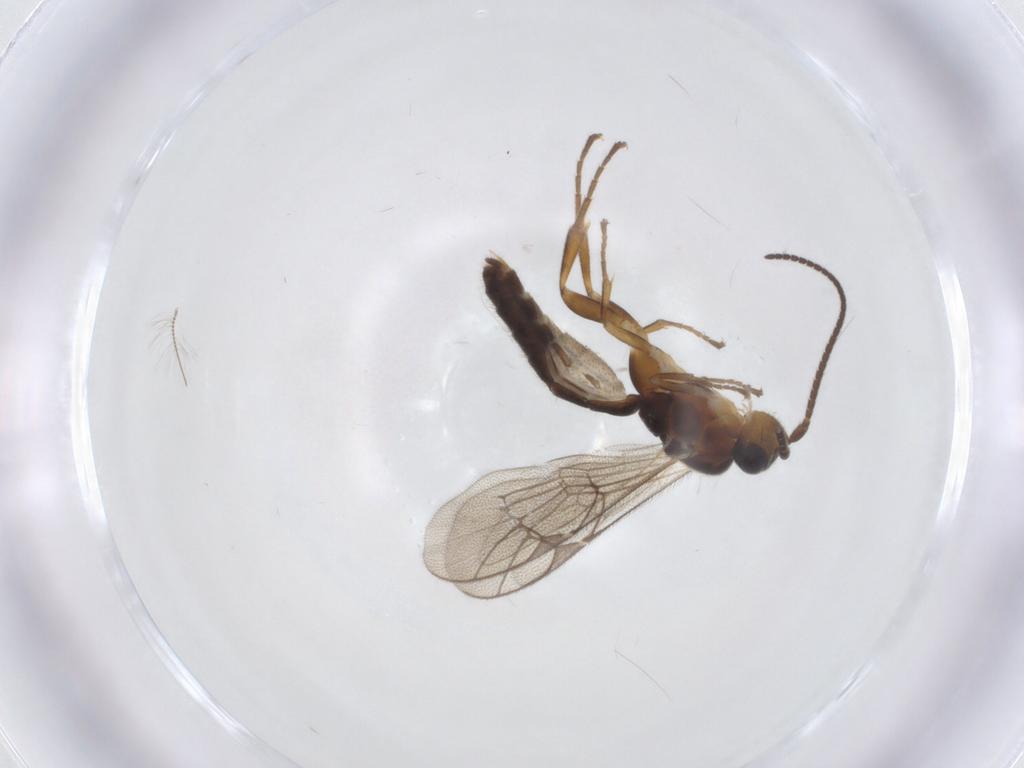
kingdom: Animalia
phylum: Arthropoda
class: Insecta
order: Hymenoptera
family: Ichneumonidae
